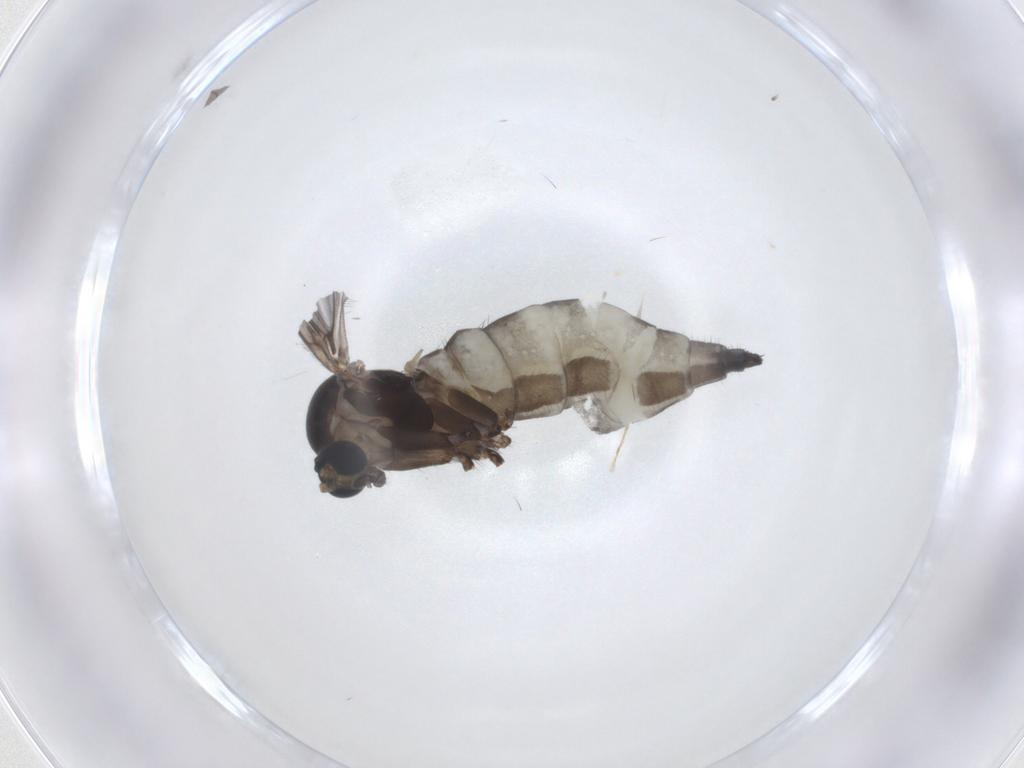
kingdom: Animalia
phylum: Arthropoda
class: Insecta
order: Diptera
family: Sciaridae
